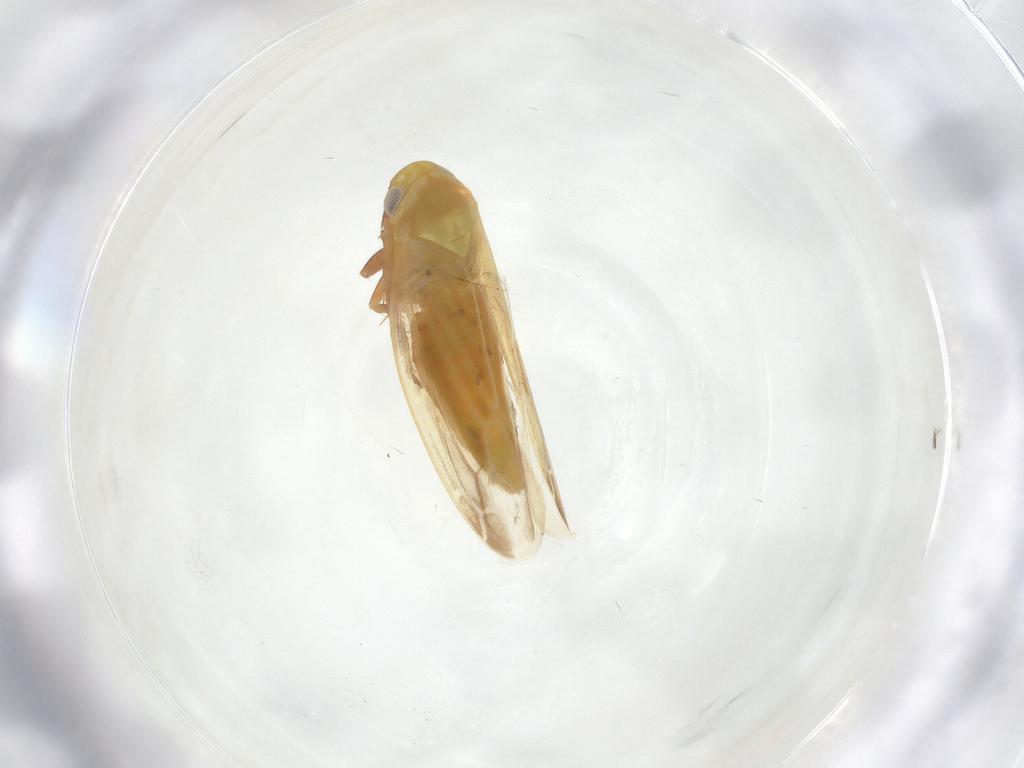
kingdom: Animalia
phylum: Arthropoda
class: Insecta
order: Hemiptera
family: Cicadellidae
